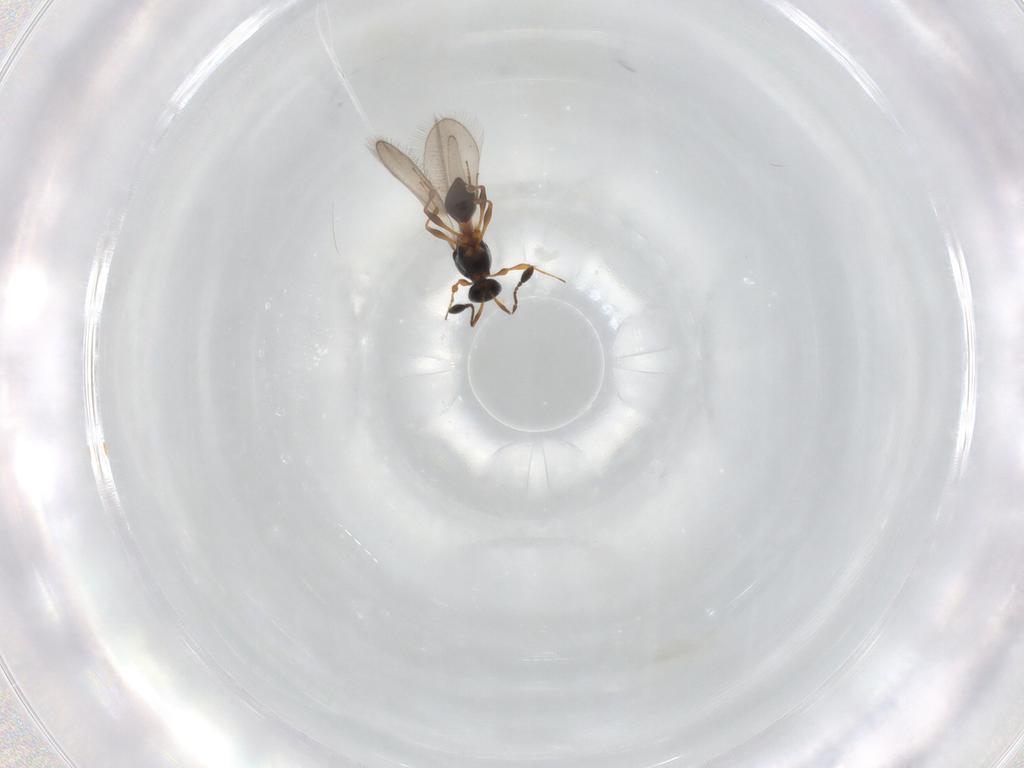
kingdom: Animalia
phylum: Arthropoda
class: Insecta
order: Hymenoptera
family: Platygastridae
